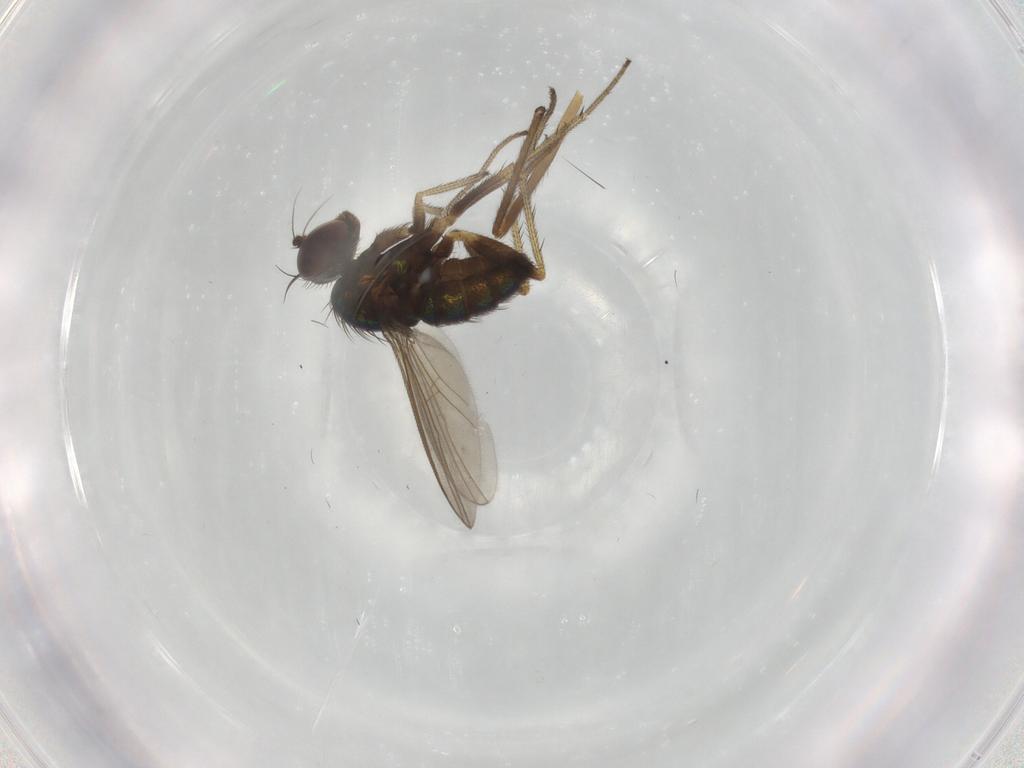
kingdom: Animalia
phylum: Arthropoda
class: Insecta
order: Diptera
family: Dolichopodidae
